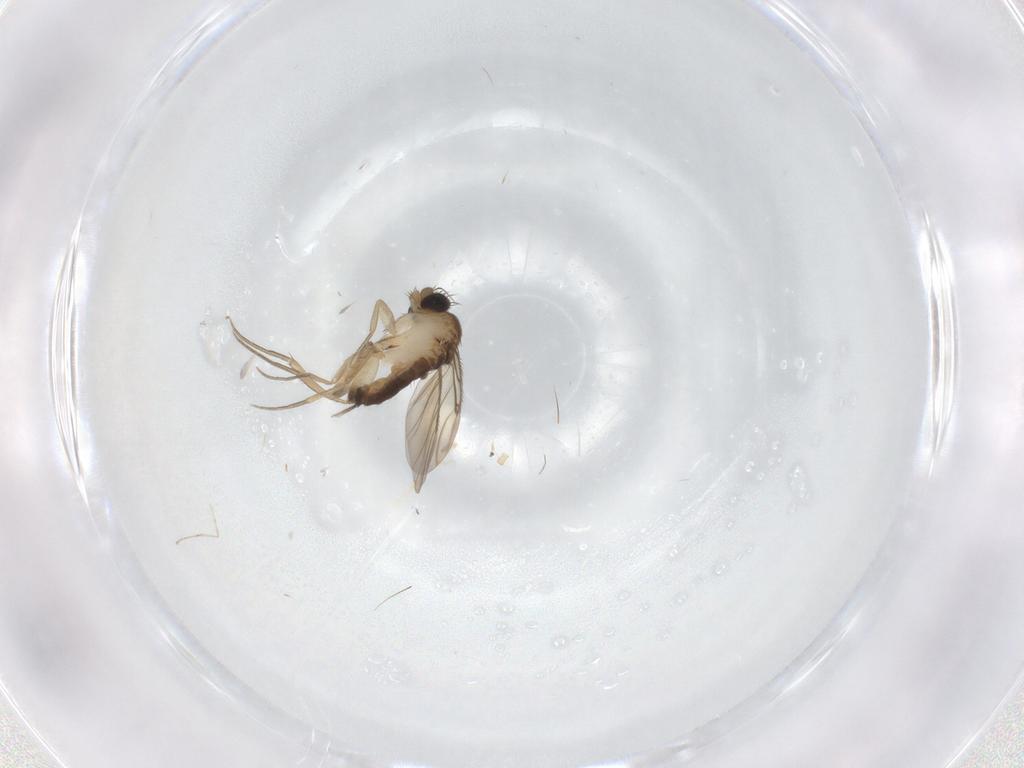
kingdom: Animalia
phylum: Arthropoda
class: Insecta
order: Diptera
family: Phoridae
